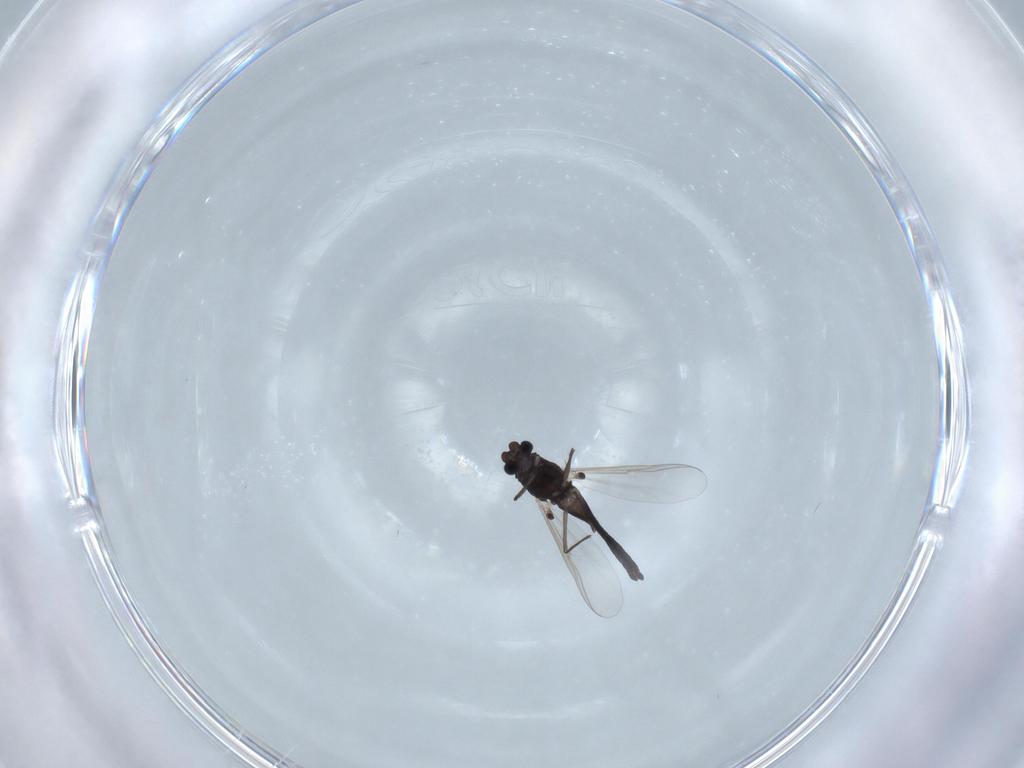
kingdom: Animalia
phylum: Arthropoda
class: Insecta
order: Diptera
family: Chironomidae
